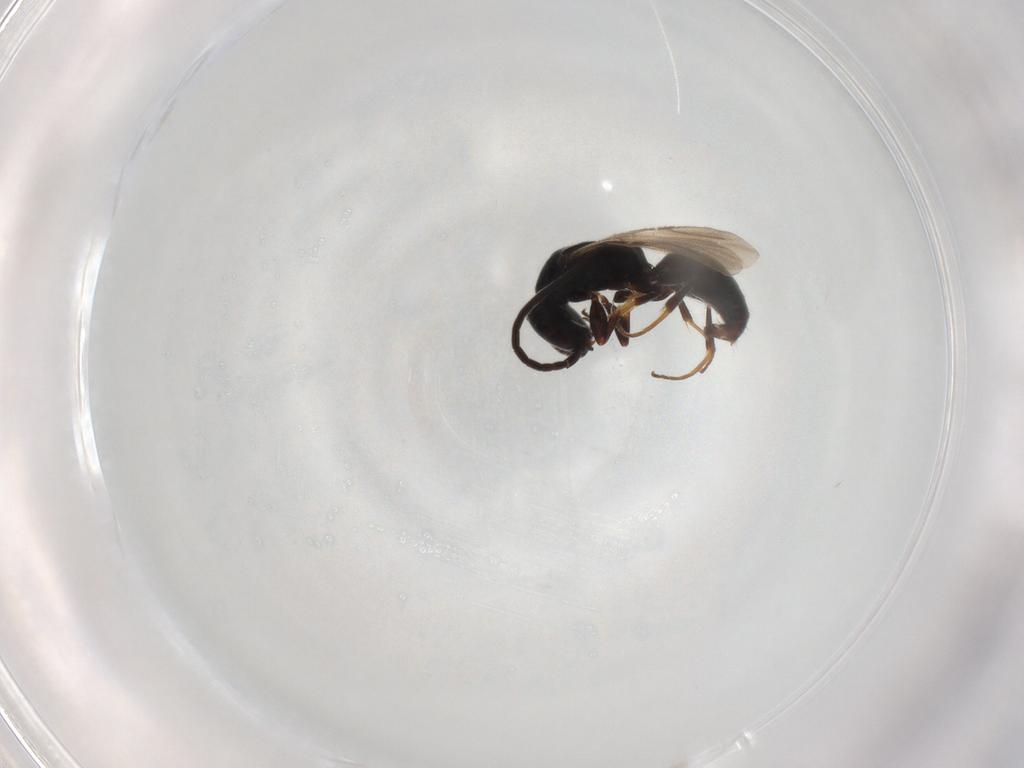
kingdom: Animalia
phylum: Arthropoda
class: Insecta
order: Hymenoptera
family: Bethylidae
